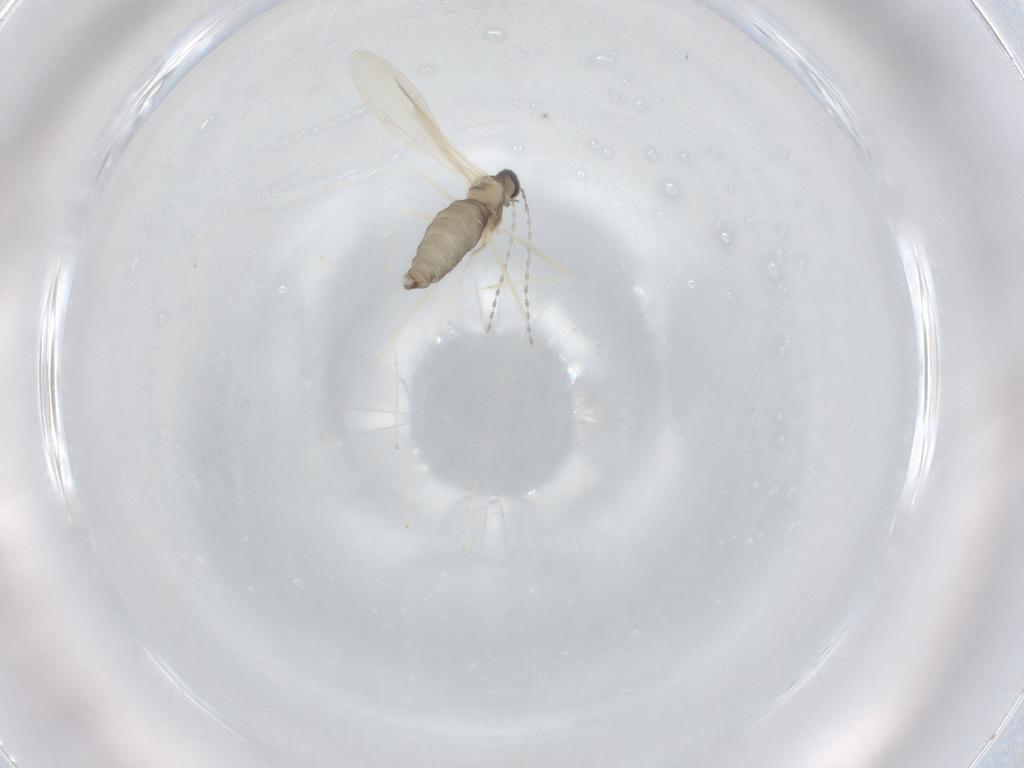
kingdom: Animalia
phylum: Arthropoda
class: Insecta
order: Diptera
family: Cecidomyiidae
